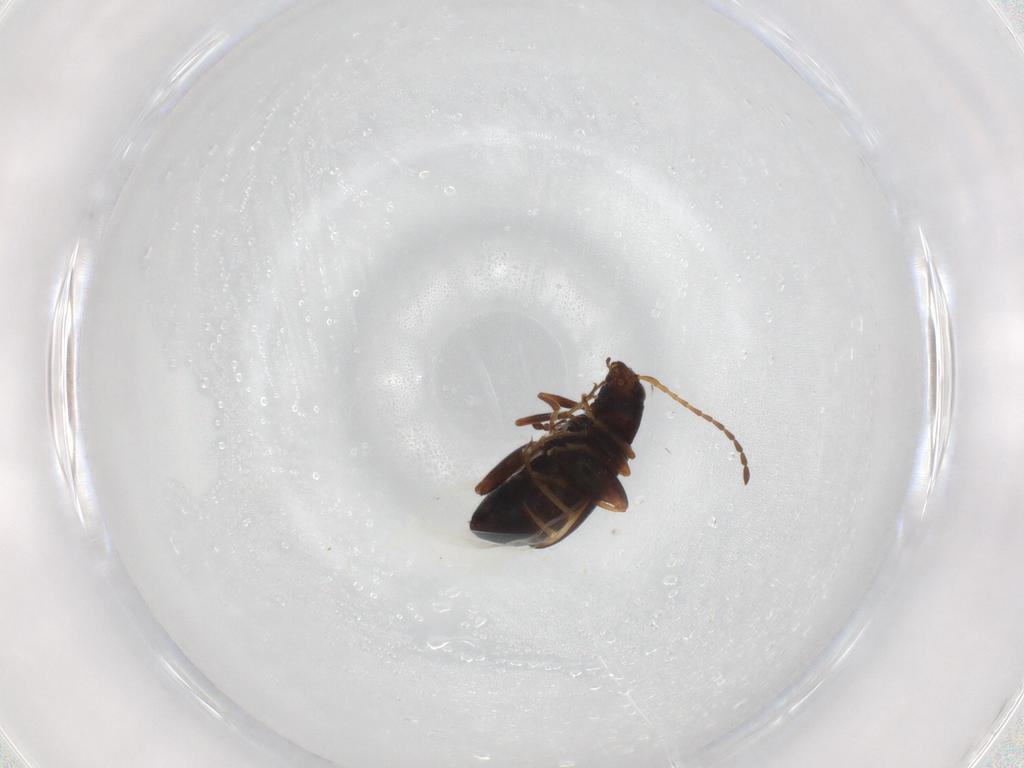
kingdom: Animalia
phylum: Arthropoda
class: Insecta
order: Coleoptera
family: Chrysomelidae
